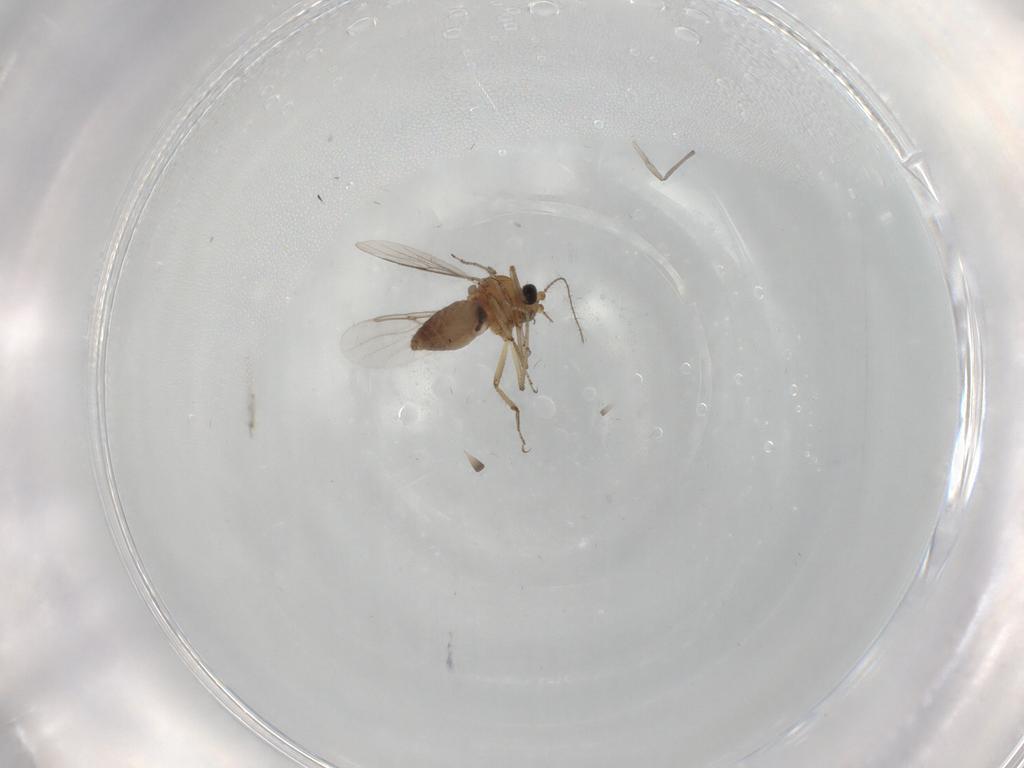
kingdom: Animalia
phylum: Arthropoda
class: Insecta
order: Diptera
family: Chironomidae
